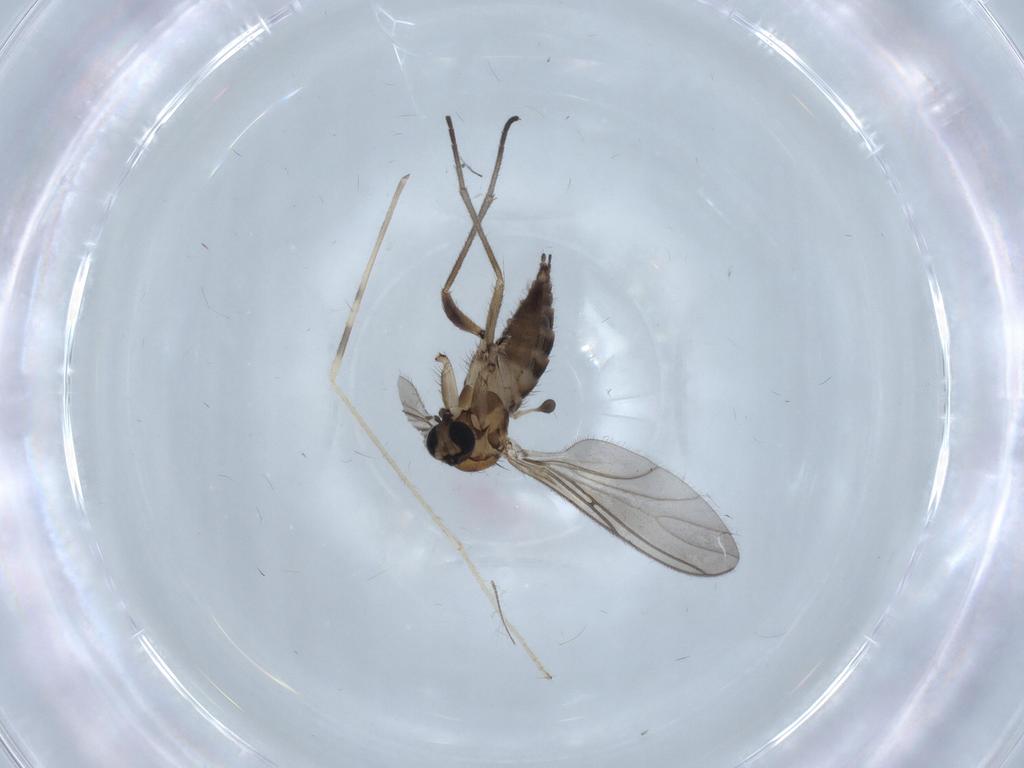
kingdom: Animalia
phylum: Arthropoda
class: Insecta
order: Diptera
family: Limoniidae
